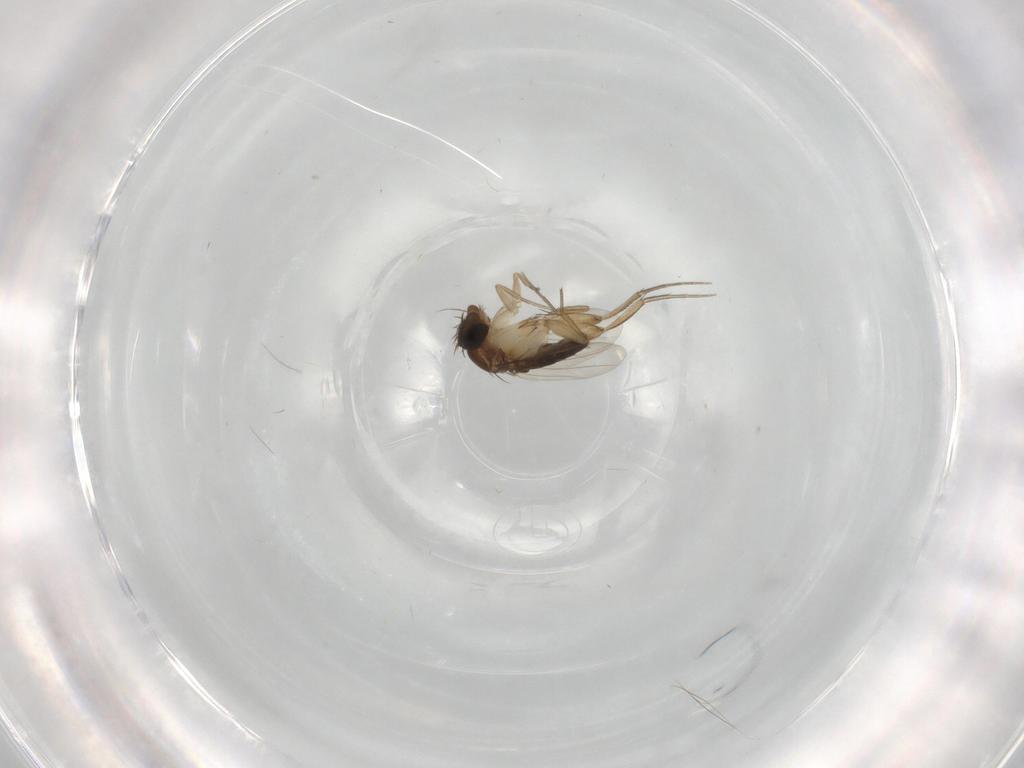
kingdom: Animalia
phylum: Arthropoda
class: Insecta
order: Diptera
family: Phoridae
